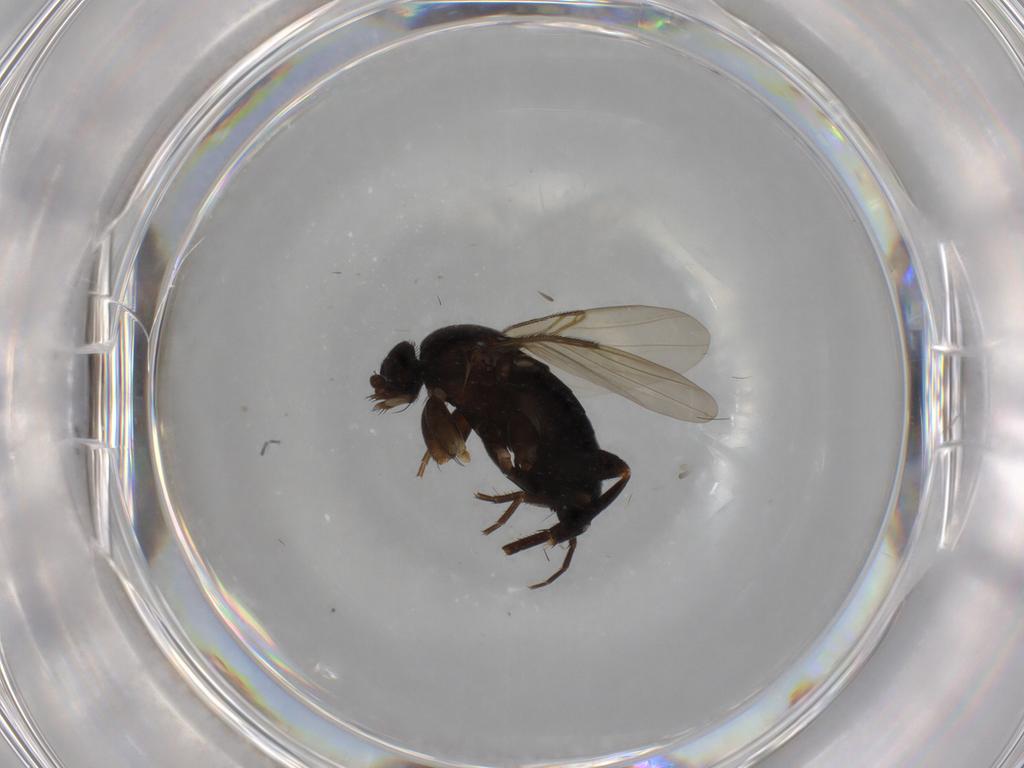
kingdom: Animalia
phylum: Arthropoda
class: Insecta
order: Diptera
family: Phoridae
